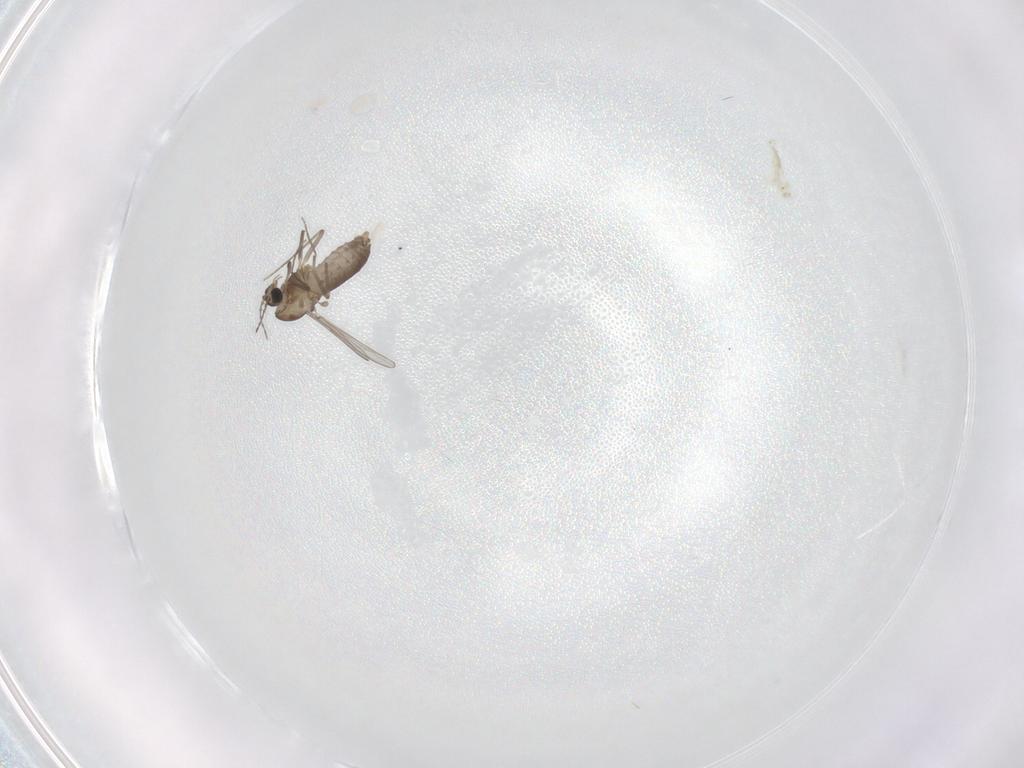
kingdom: Animalia
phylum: Arthropoda
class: Insecta
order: Diptera
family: Chironomidae
